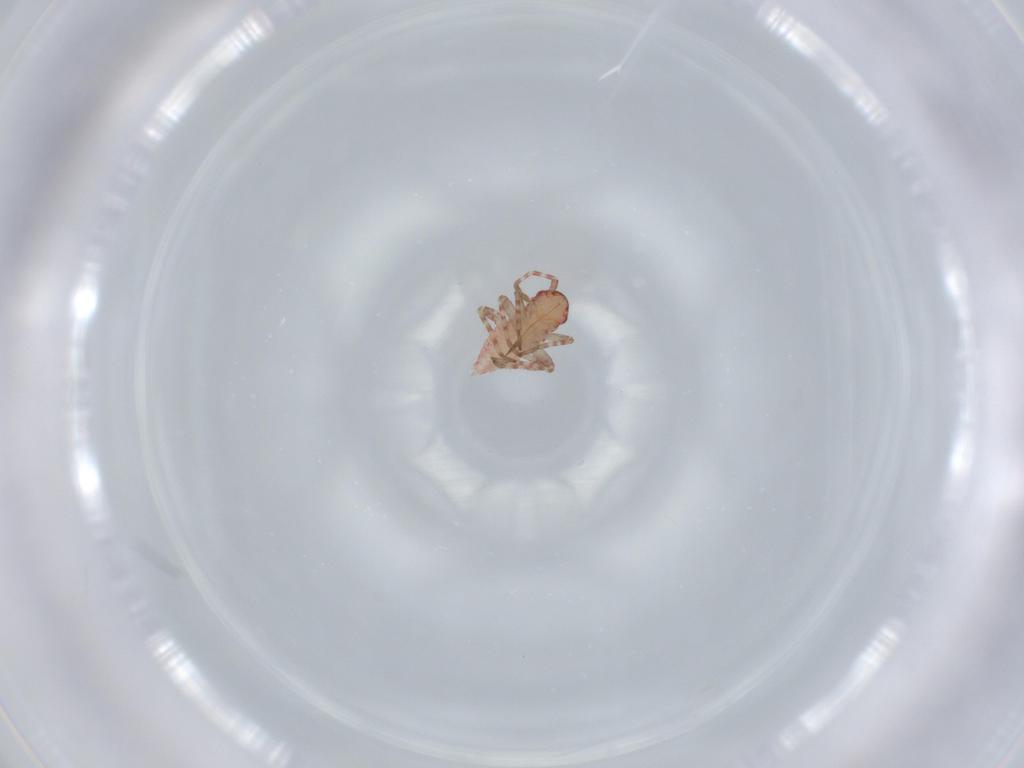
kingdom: Animalia
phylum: Arthropoda
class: Insecta
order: Hemiptera
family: Miridae
